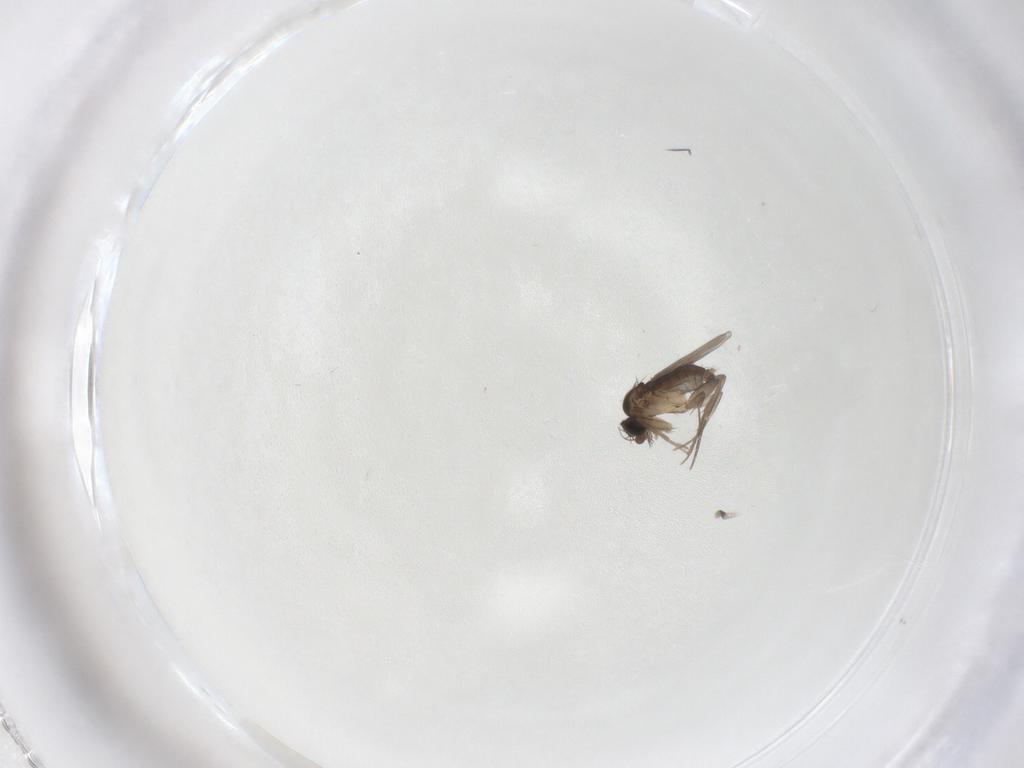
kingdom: Animalia
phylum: Arthropoda
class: Insecta
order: Diptera
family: Phoridae
